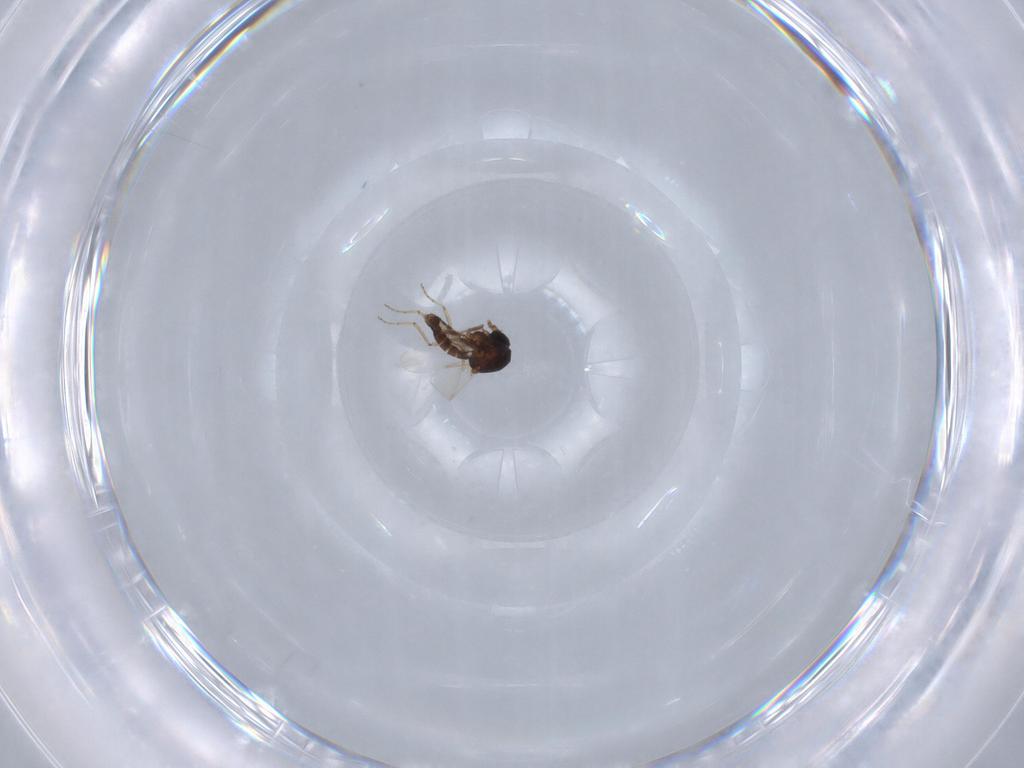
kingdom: Animalia
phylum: Arthropoda
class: Insecta
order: Diptera
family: Ceratopogonidae
